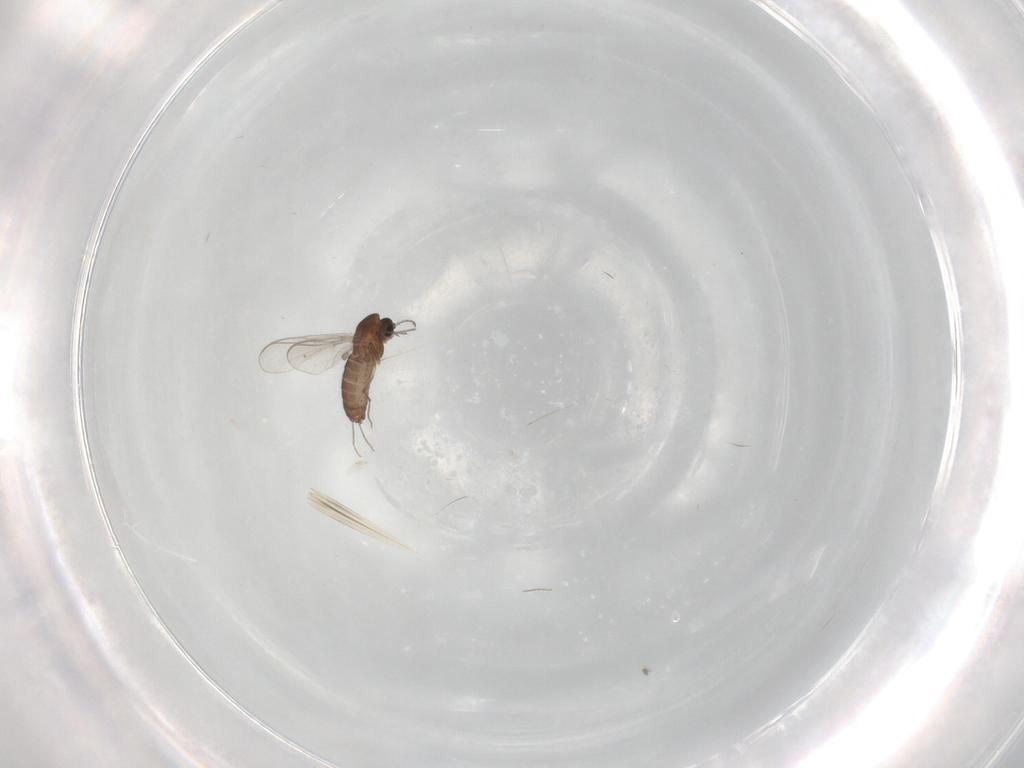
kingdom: Animalia
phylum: Arthropoda
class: Insecta
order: Diptera
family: Chironomidae
